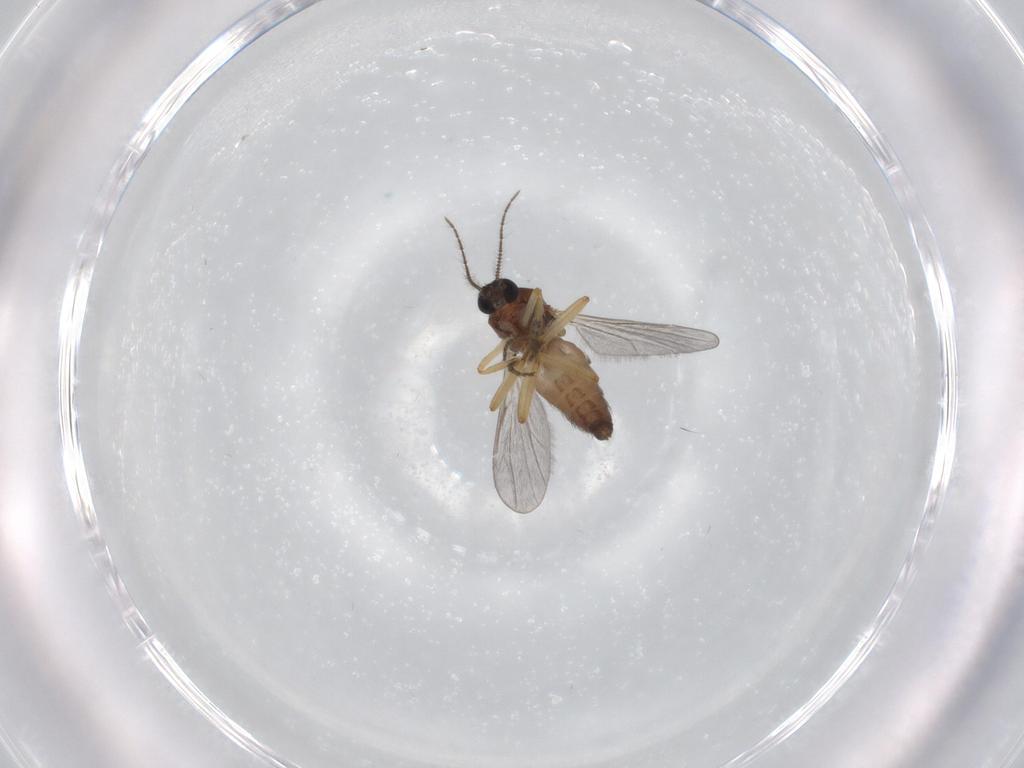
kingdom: Animalia
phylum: Arthropoda
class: Insecta
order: Diptera
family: Ceratopogonidae
